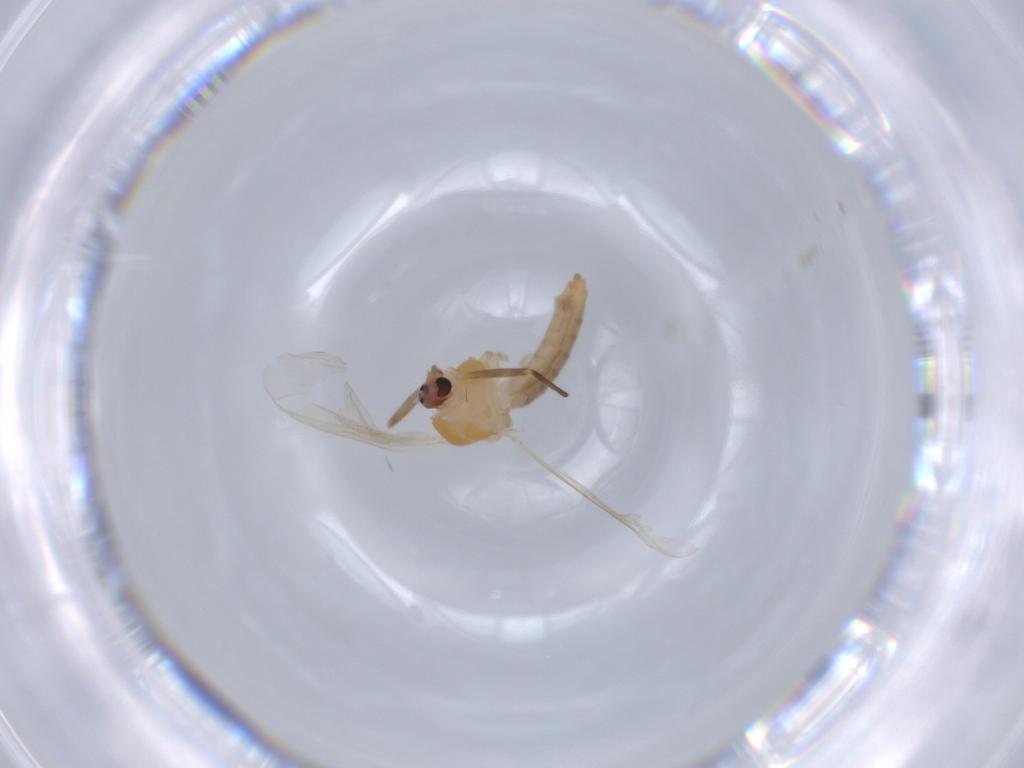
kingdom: Animalia
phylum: Arthropoda
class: Insecta
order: Diptera
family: Chironomidae
